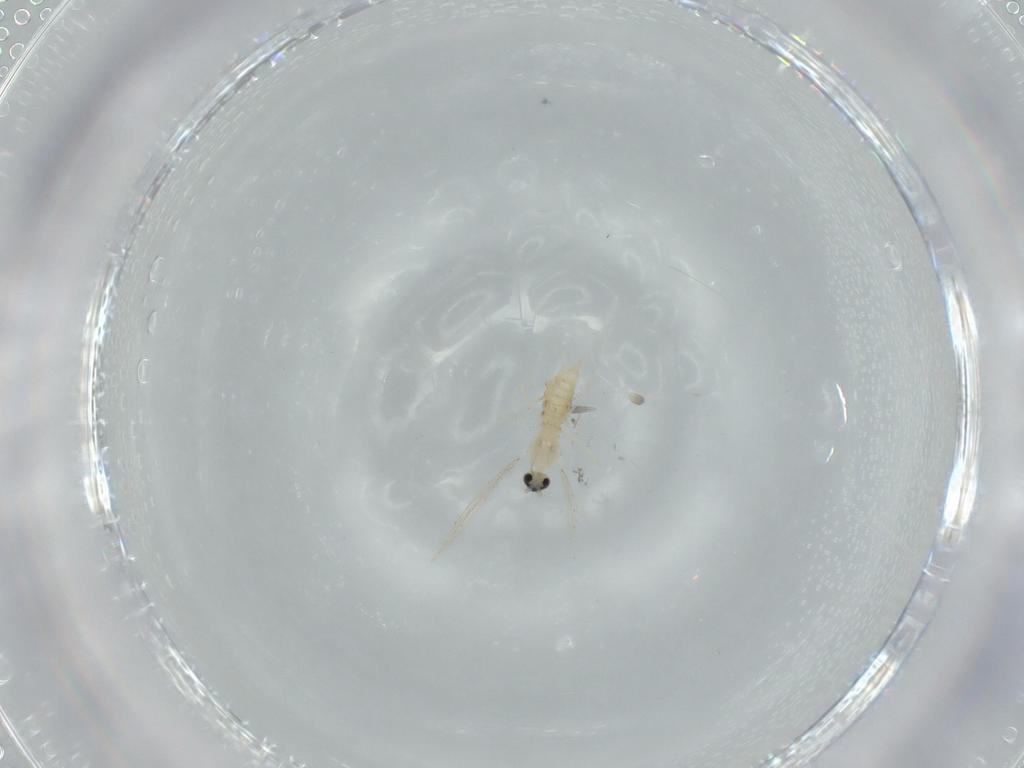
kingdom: Animalia
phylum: Arthropoda
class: Insecta
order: Diptera
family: Cecidomyiidae
